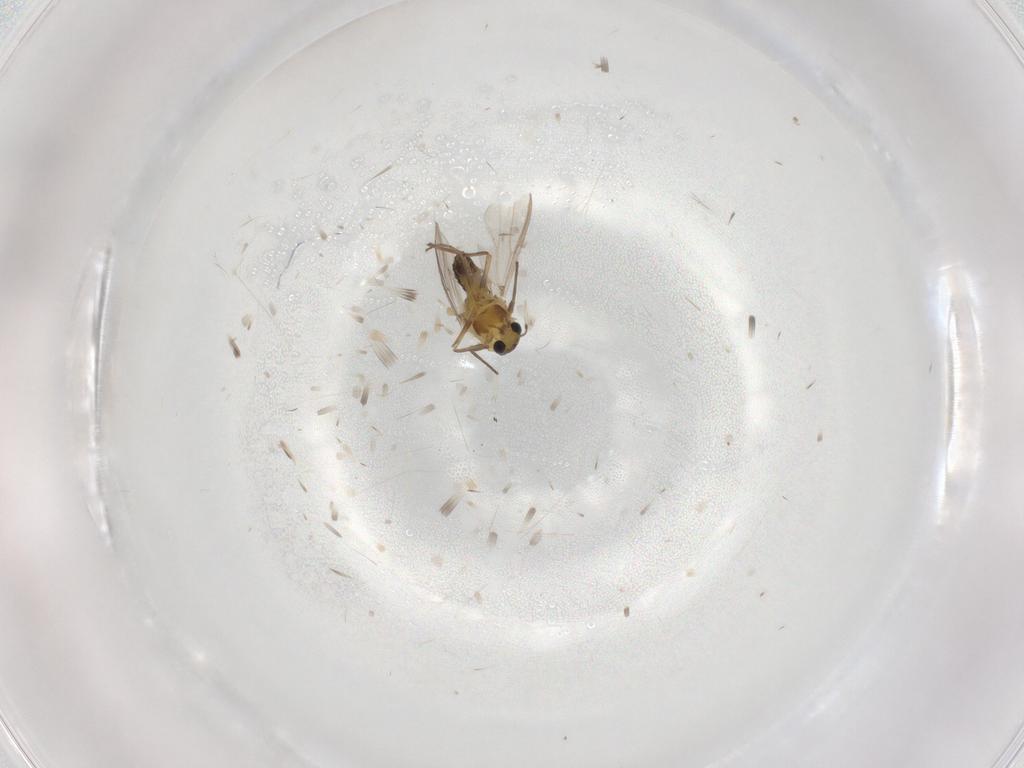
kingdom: Animalia
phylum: Arthropoda
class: Insecta
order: Diptera
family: Chironomidae
